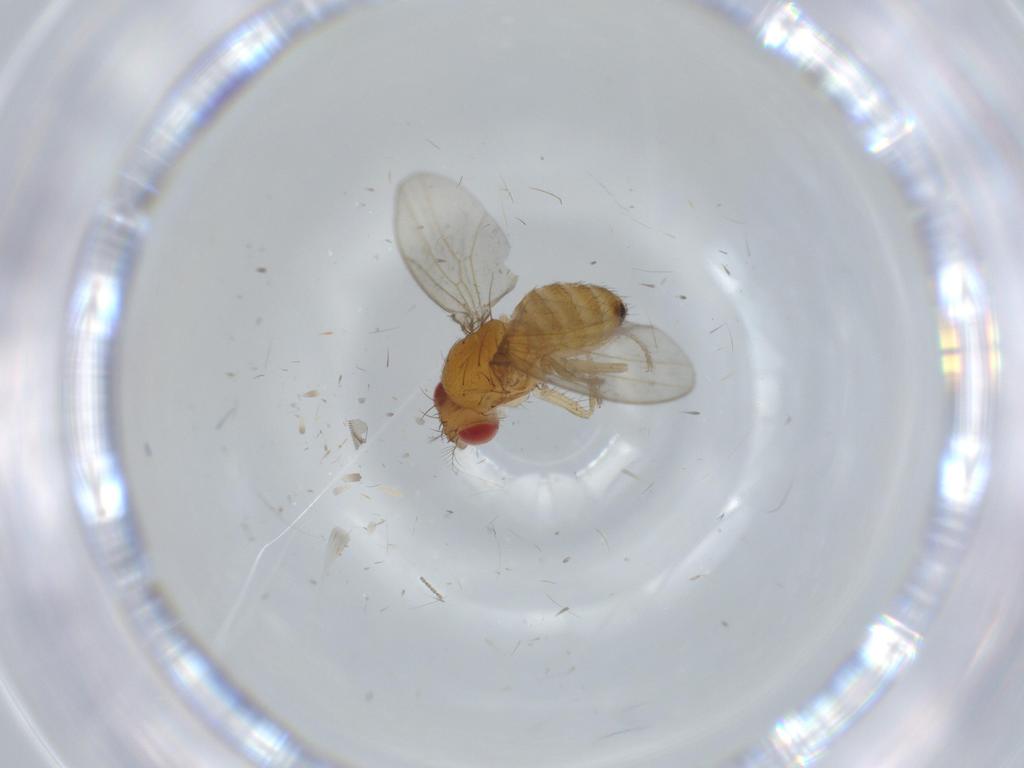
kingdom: Animalia
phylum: Arthropoda
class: Insecta
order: Diptera
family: Drosophilidae
